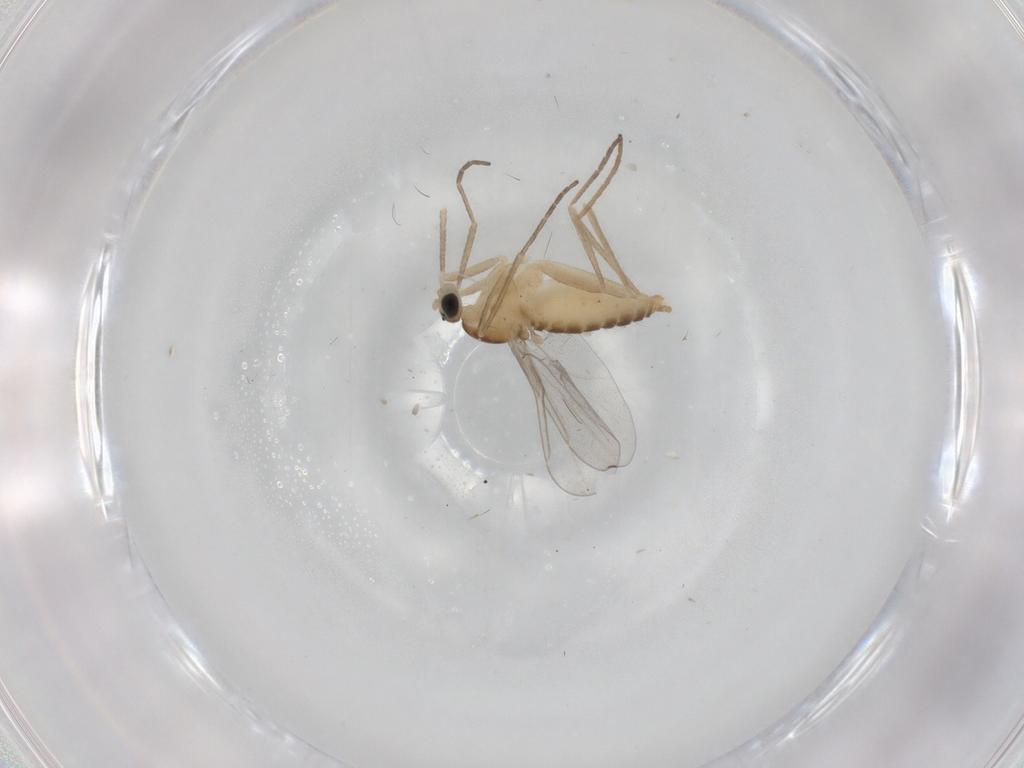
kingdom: Animalia
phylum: Arthropoda
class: Insecta
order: Diptera
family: Cecidomyiidae
